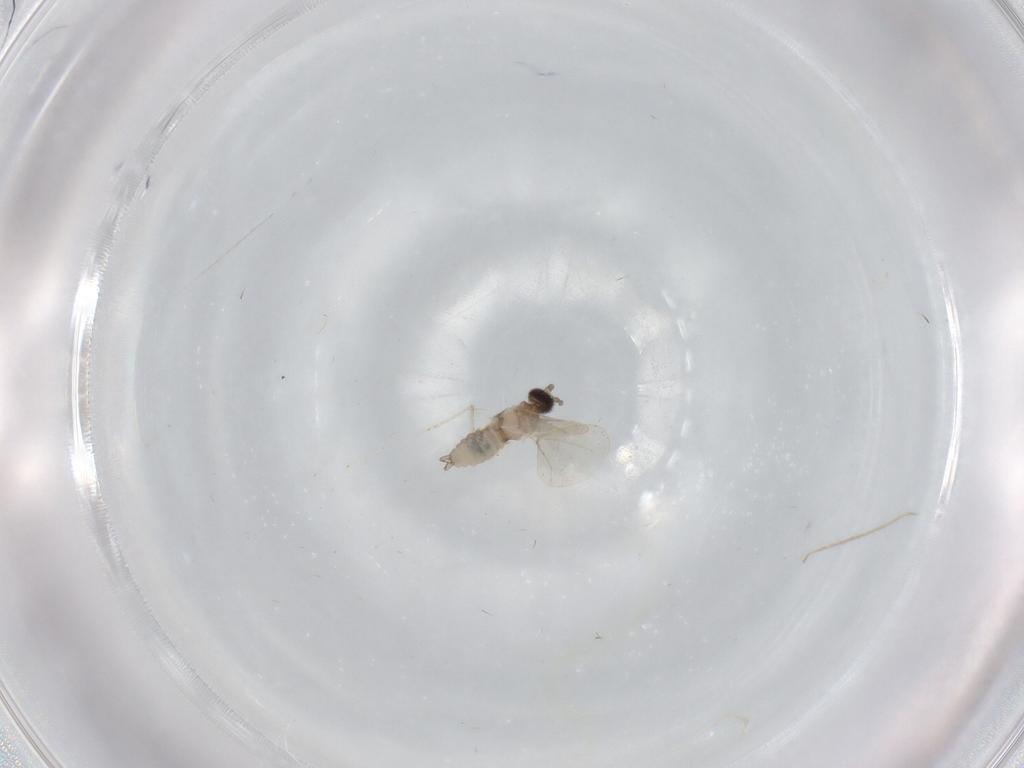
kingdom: Animalia
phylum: Arthropoda
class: Insecta
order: Diptera
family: Cecidomyiidae
